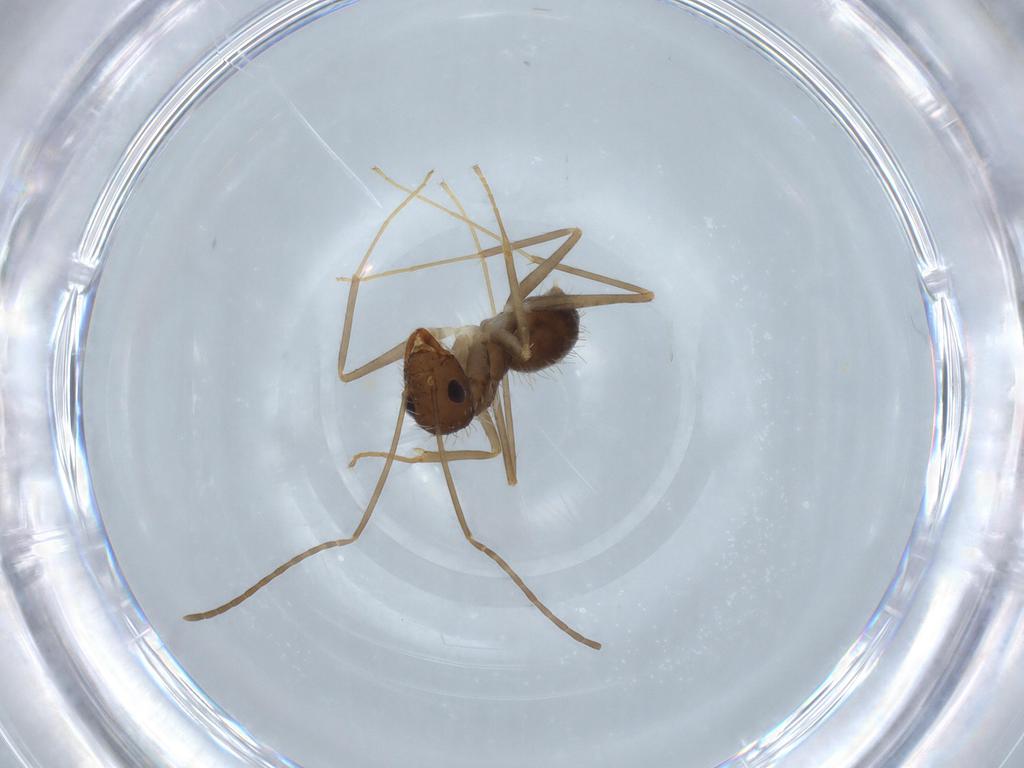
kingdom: Animalia
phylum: Arthropoda
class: Insecta
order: Hymenoptera
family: Formicidae
